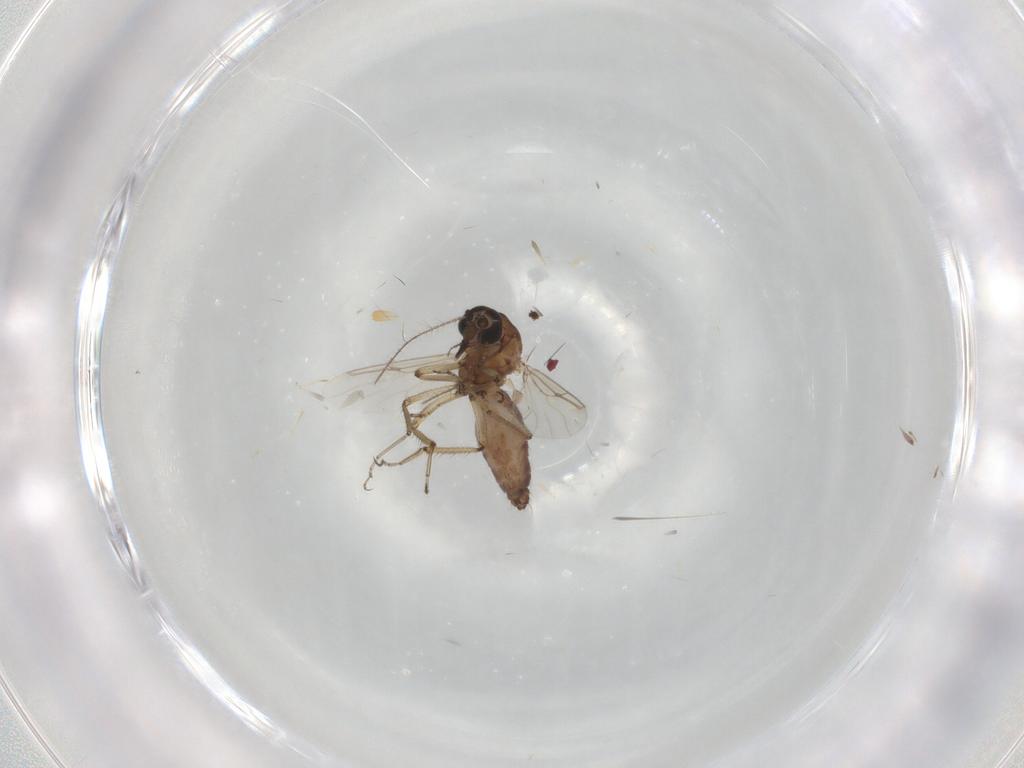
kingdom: Animalia
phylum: Arthropoda
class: Insecta
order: Diptera
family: Ceratopogonidae
